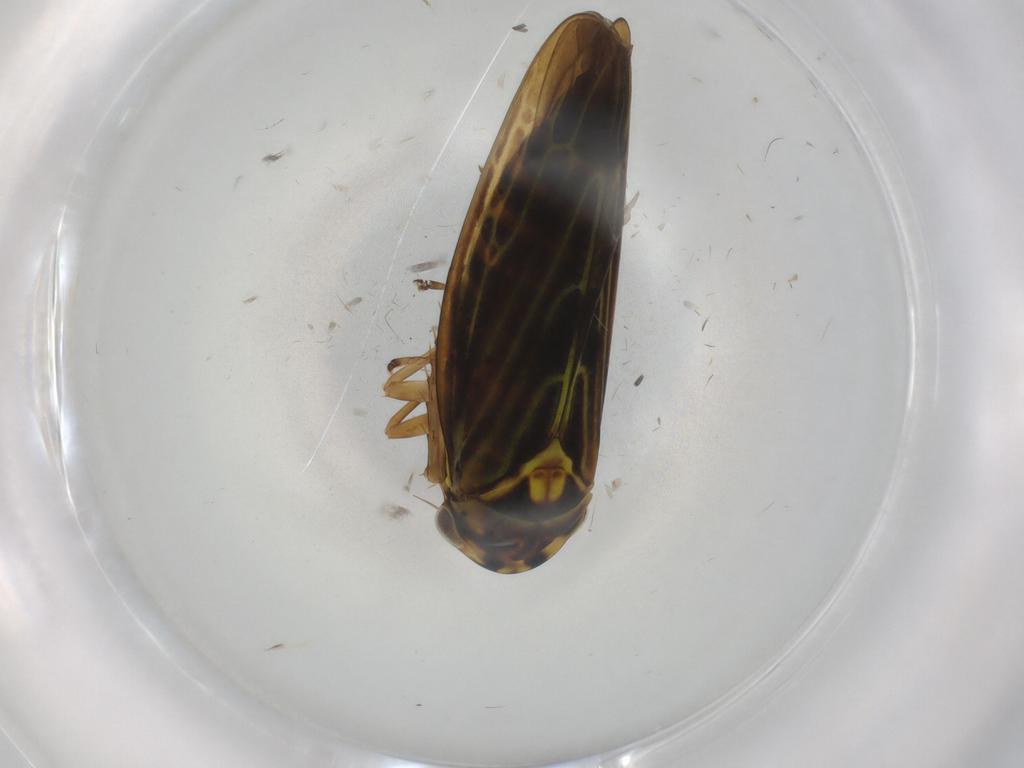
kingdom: Animalia
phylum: Arthropoda
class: Insecta
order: Hemiptera
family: Cicadellidae
